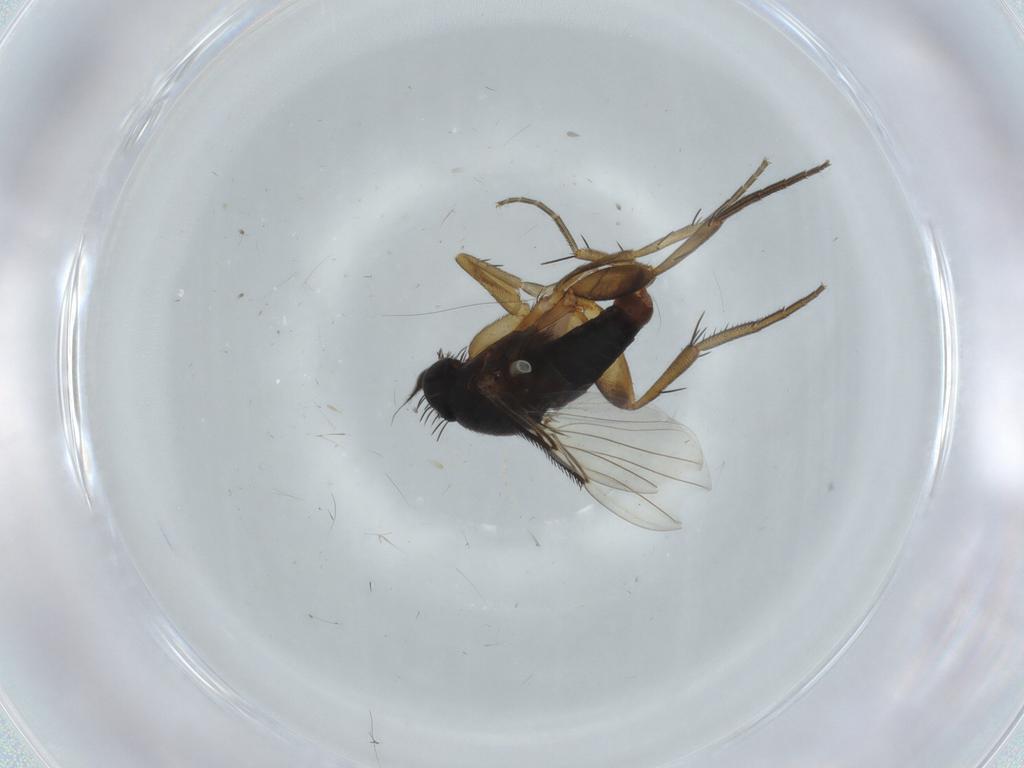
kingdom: Animalia
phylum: Arthropoda
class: Insecta
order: Diptera
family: Phoridae
